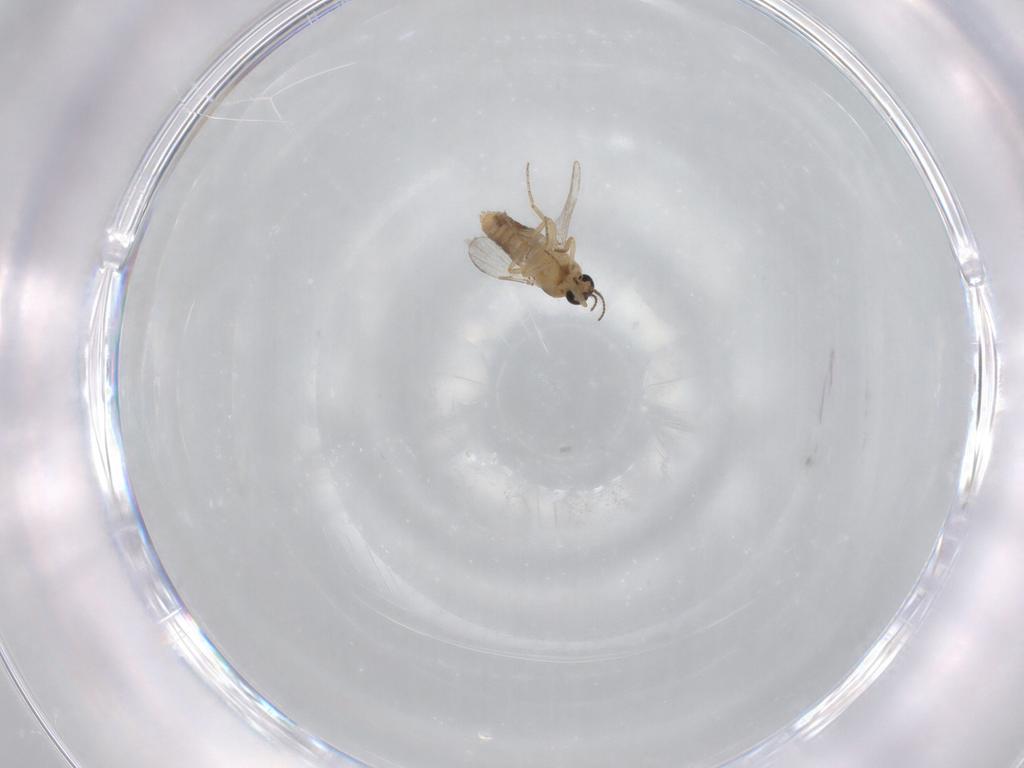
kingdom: Animalia
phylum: Arthropoda
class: Insecta
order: Diptera
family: Ceratopogonidae
